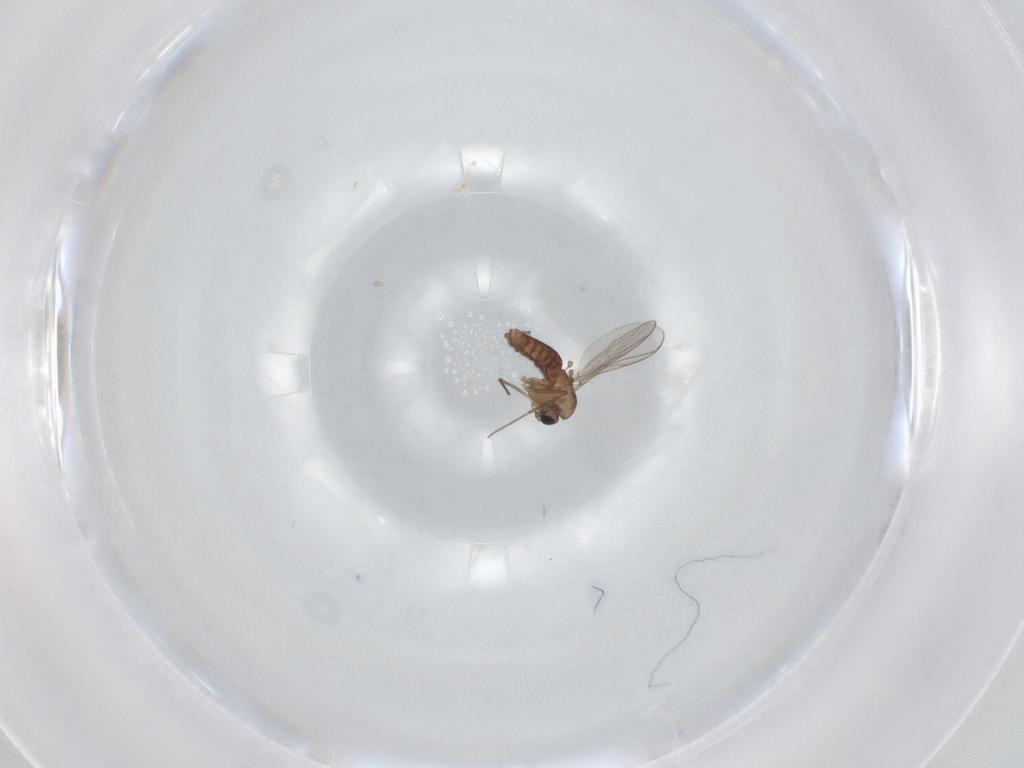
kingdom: Animalia
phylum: Arthropoda
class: Insecta
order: Diptera
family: Chironomidae
